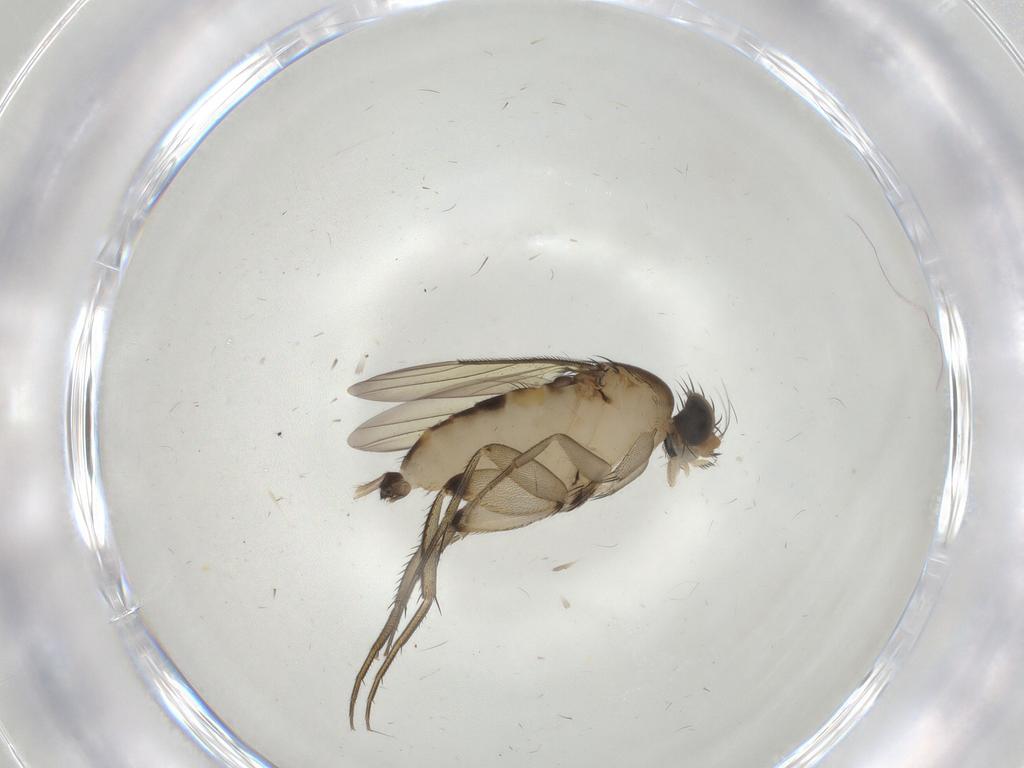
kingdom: Animalia
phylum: Arthropoda
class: Insecta
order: Diptera
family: Phoridae
